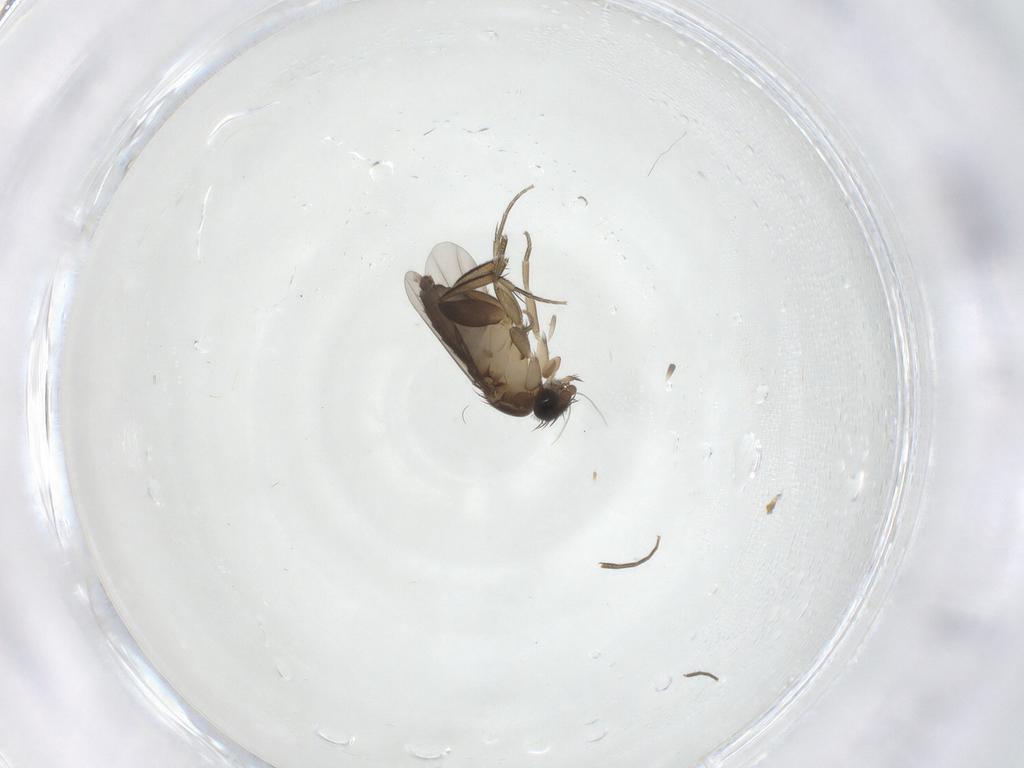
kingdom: Animalia
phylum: Arthropoda
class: Insecta
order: Diptera
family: Phoridae
